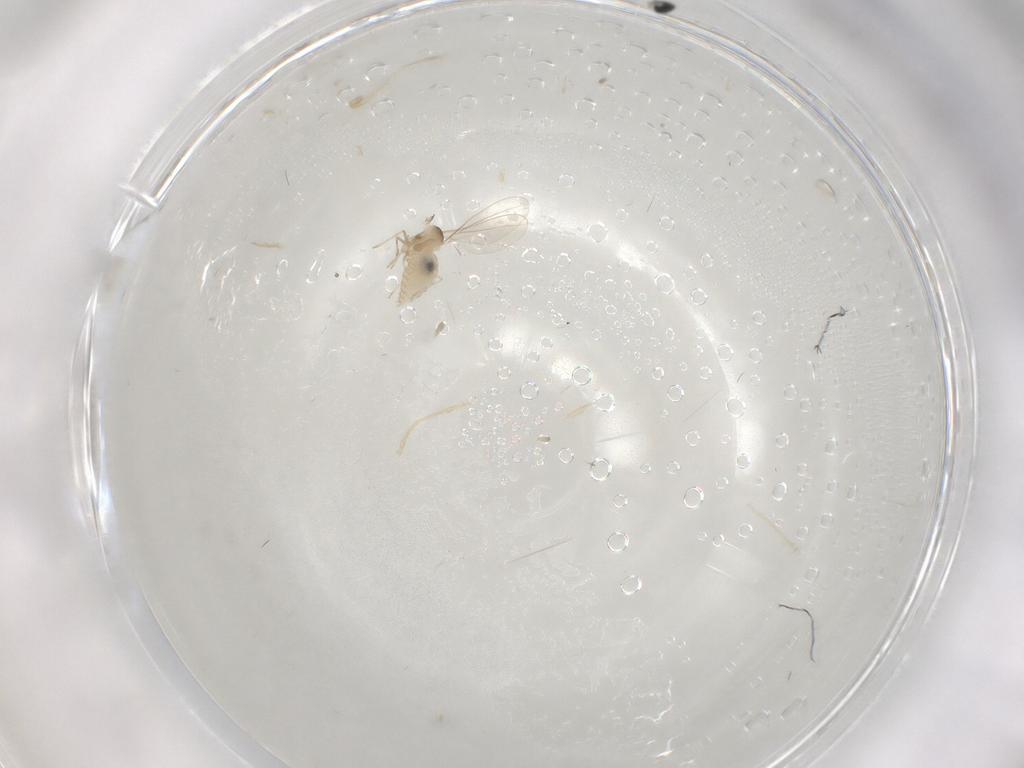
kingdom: Animalia
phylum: Arthropoda
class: Insecta
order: Diptera
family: Cecidomyiidae
